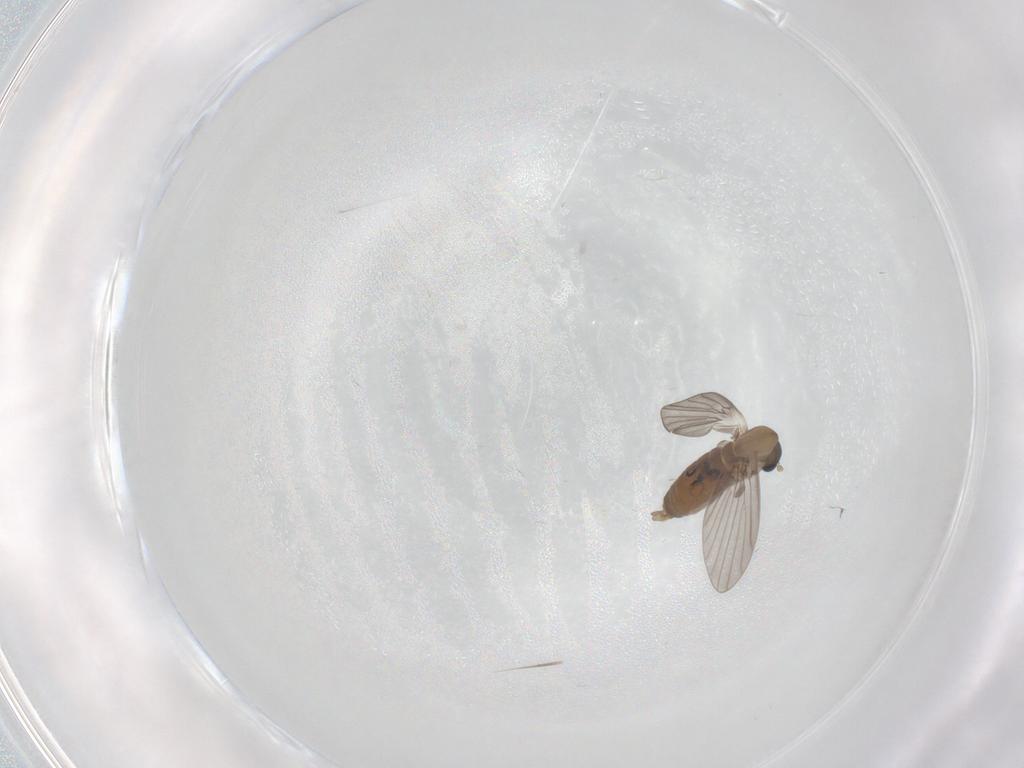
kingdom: Animalia
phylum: Arthropoda
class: Insecta
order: Diptera
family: Cecidomyiidae
